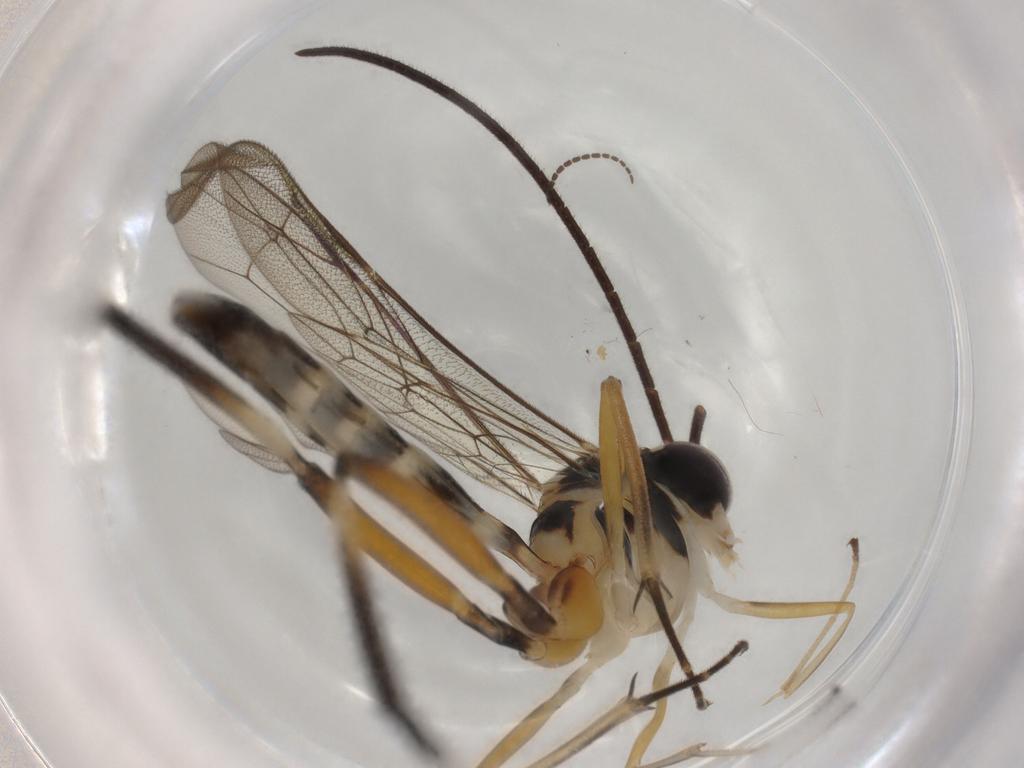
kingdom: Animalia
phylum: Arthropoda
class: Insecta
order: Hymenoptera
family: Ichneumonidae
